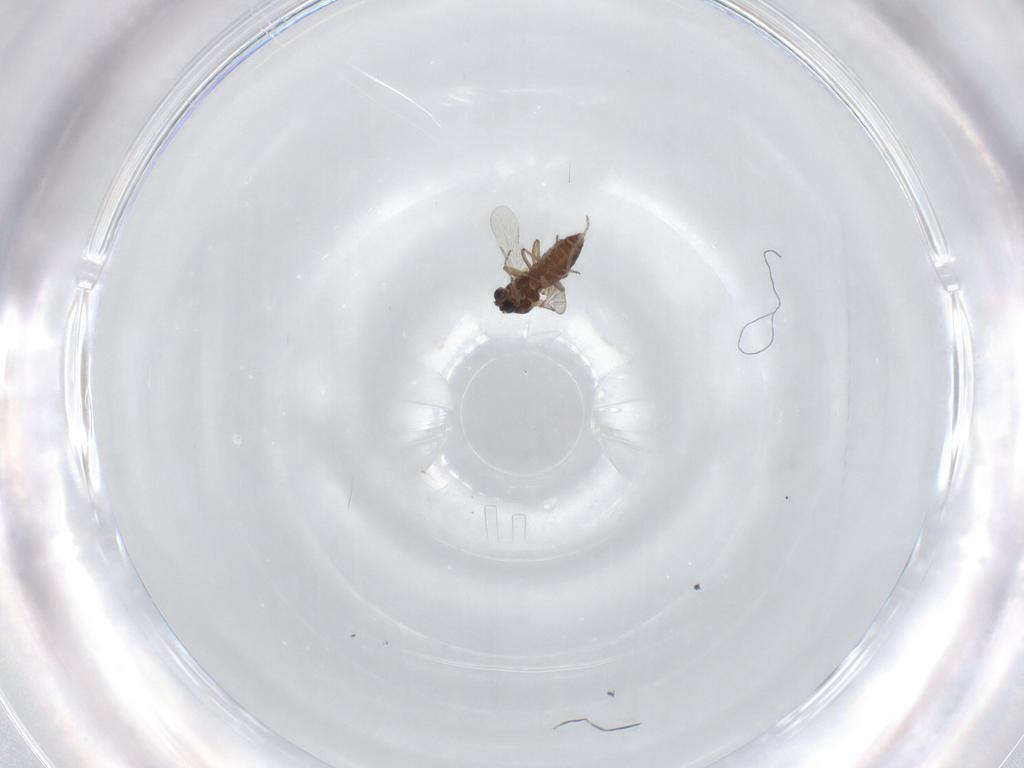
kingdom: Animalia
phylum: Arthropoda
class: Insecta
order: Diptera
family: Ceratopogonidae
